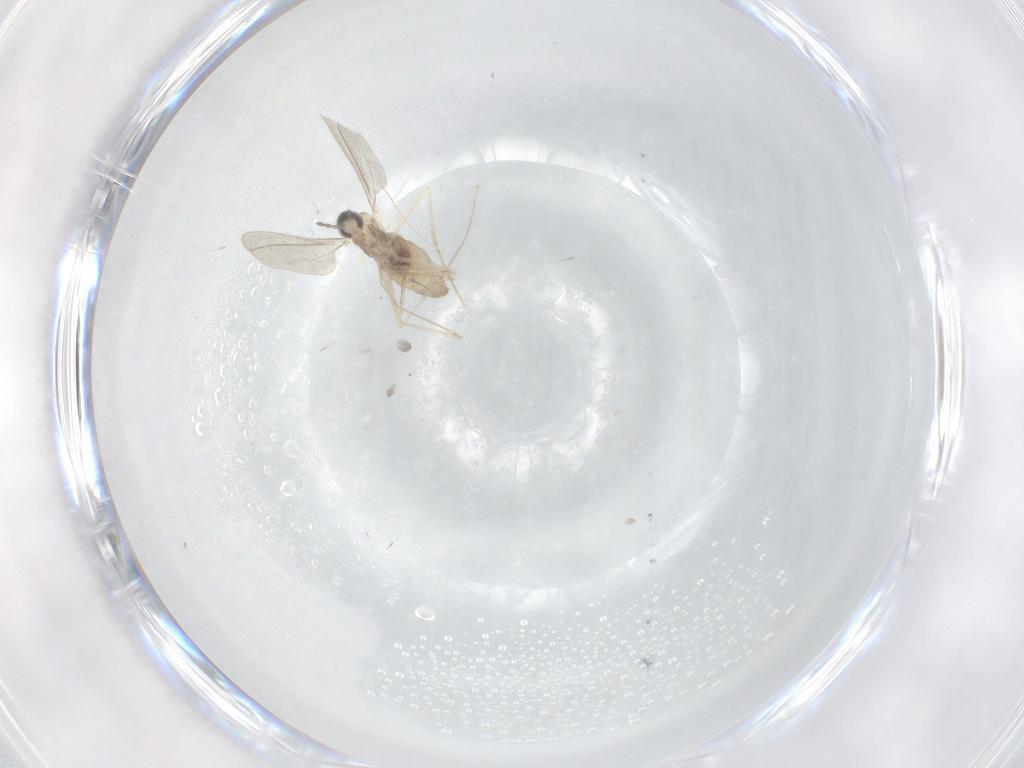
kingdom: Animalia
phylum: Arthropoda
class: Insecta
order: Diptera
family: Cecidomyiidae
